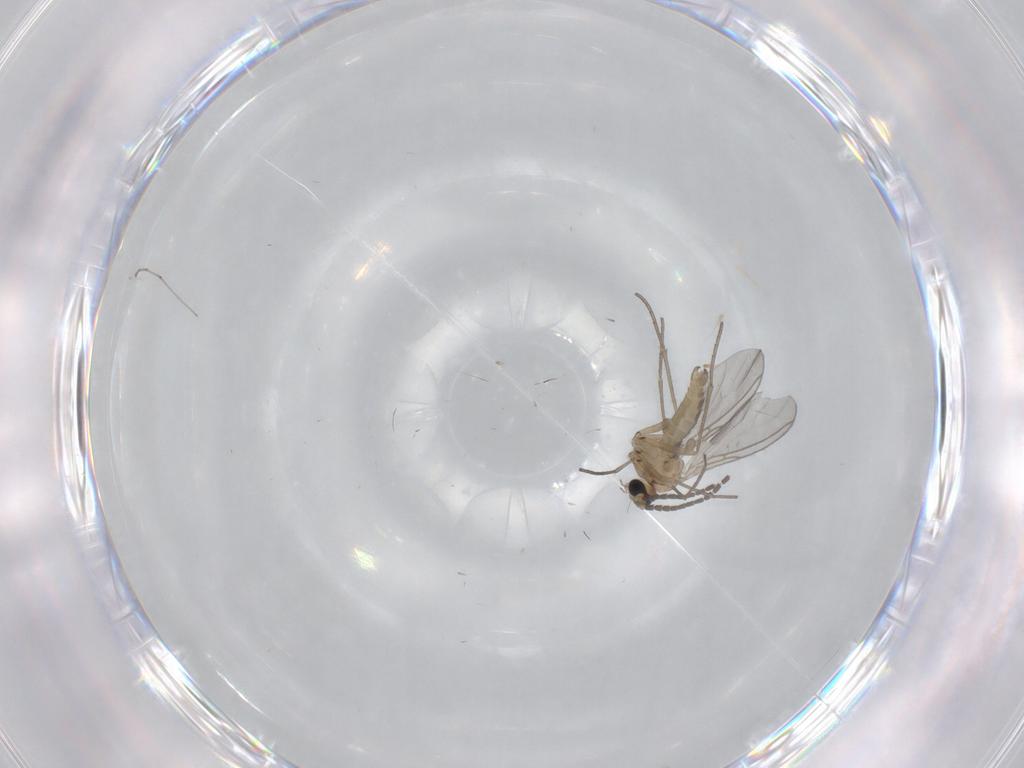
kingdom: Animalia
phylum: Arthropoda
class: Insecta
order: Diptera
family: Sciaridae
